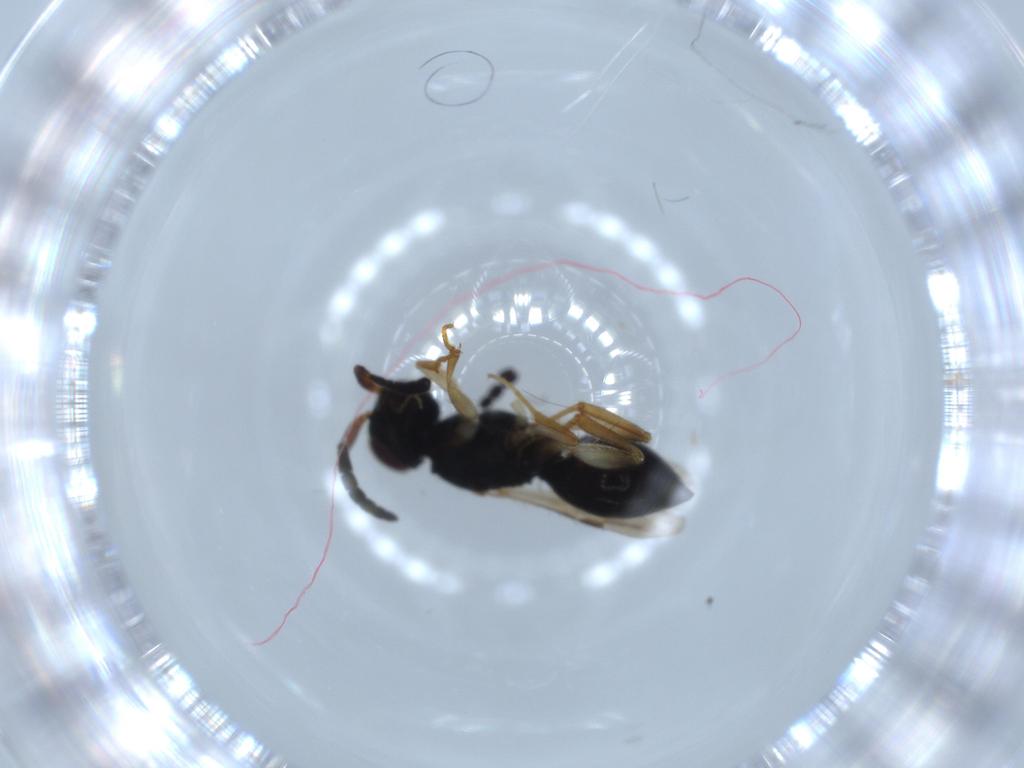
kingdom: Animalia
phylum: Arthropoda
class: Insecta
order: Hymenoptera
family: Megaspilidae
